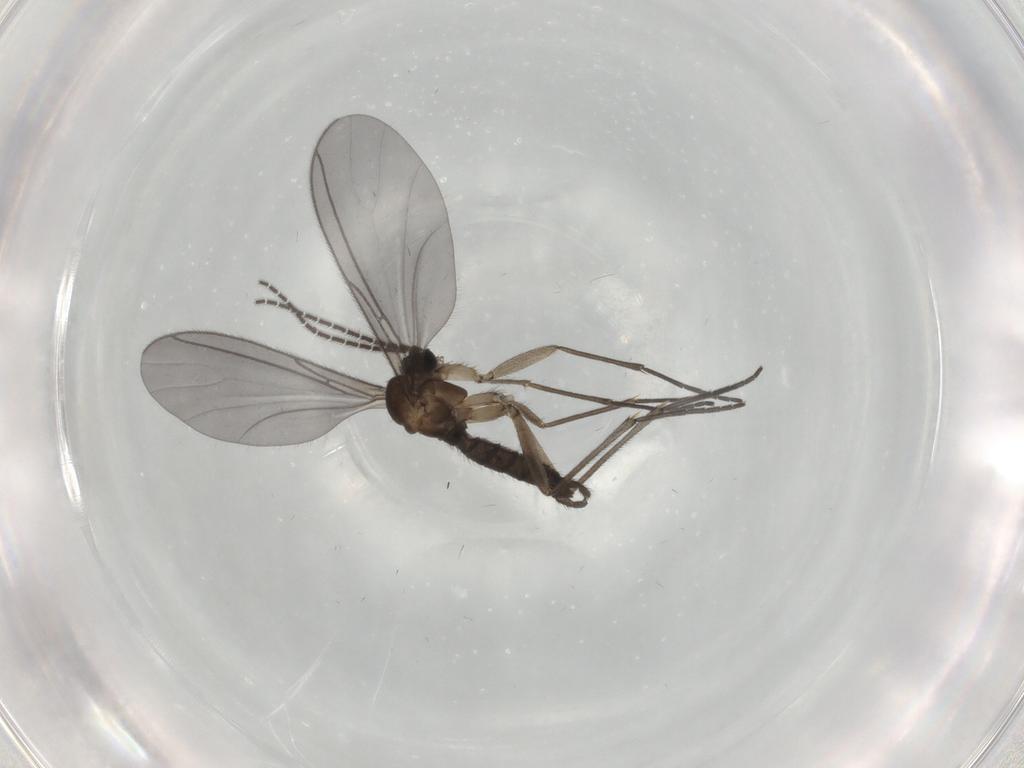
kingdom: Animalia
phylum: Arthropoda
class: Insecta
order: Diptera
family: Sciaridae
